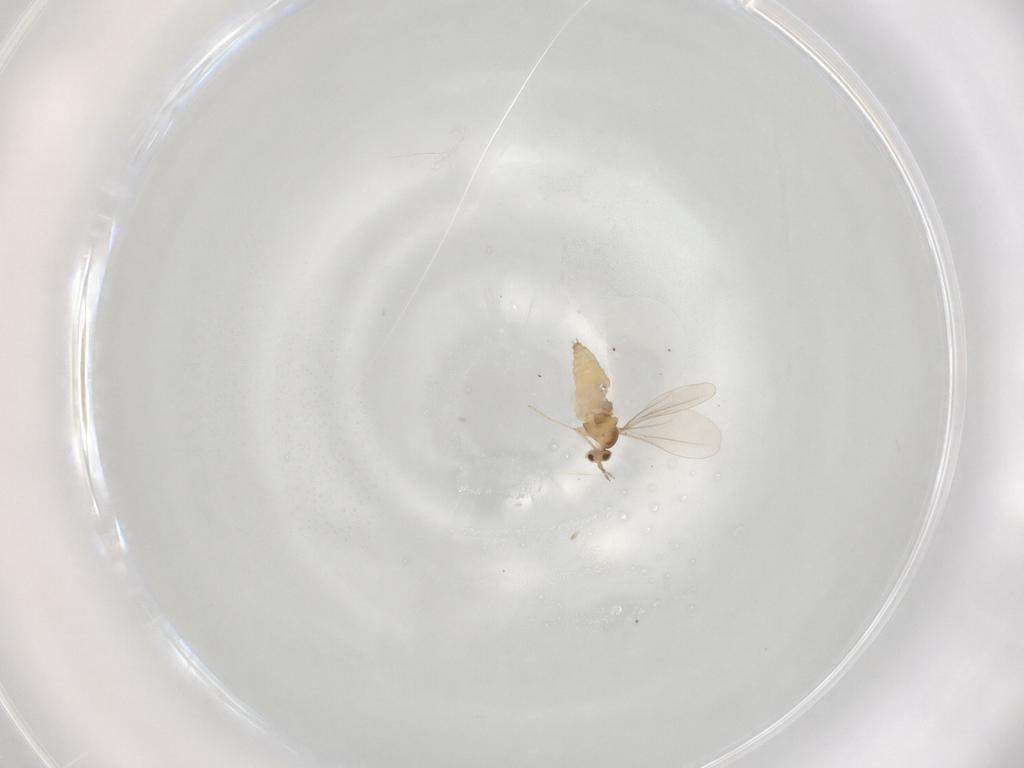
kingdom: Animalia
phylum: Arthropoda
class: Insecta
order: Diptera
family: Cecidomyiidae
